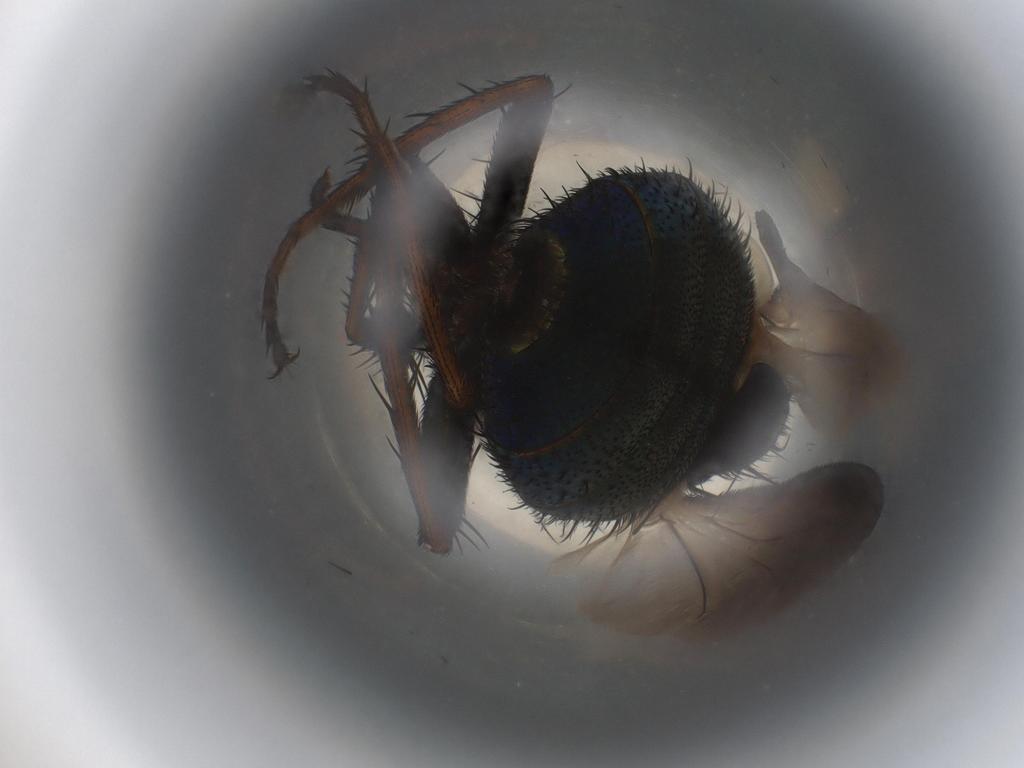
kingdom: Animalia
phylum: Arthropoda
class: Insecta
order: Diptera
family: Calliphoridae
